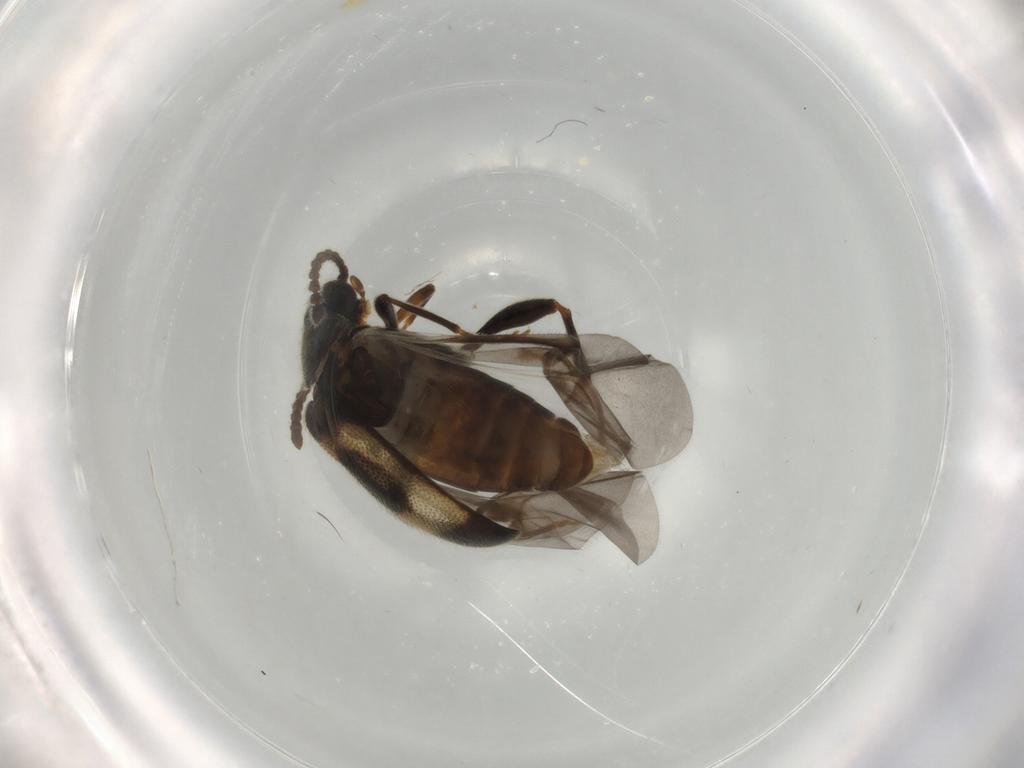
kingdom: Animalia
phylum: Arthropoda
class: Insecta
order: Coleoptera
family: Aderidae
